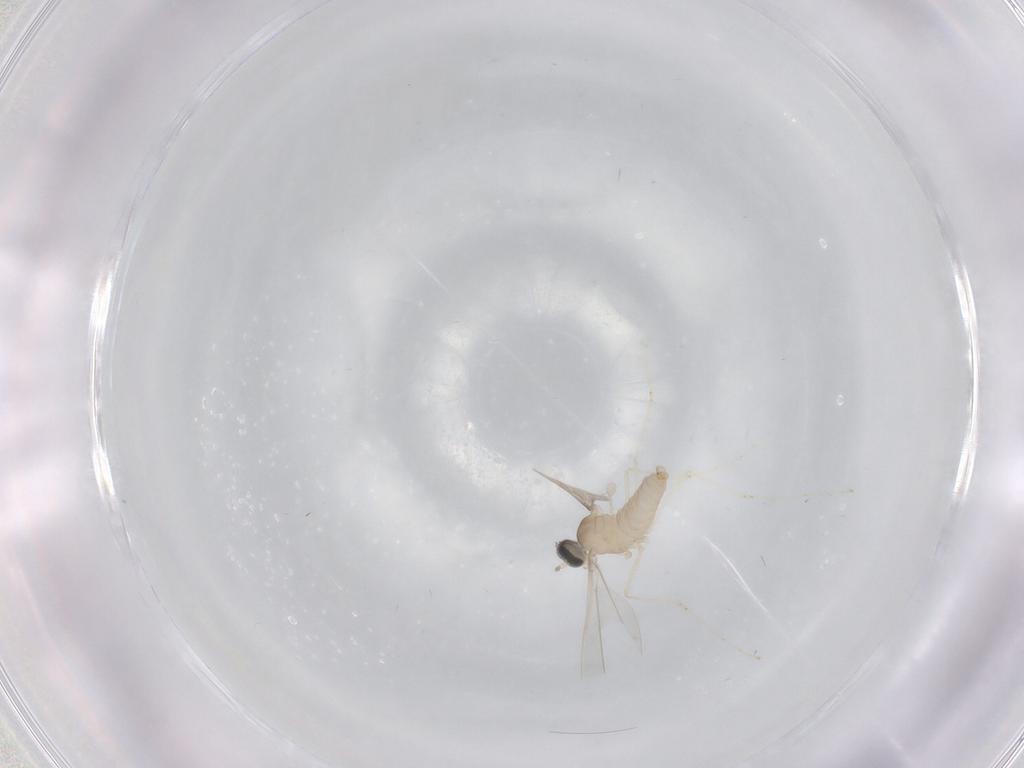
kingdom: Animalia
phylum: Arthropoda
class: Insecta
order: Diptera
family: Cecidomyiidae
